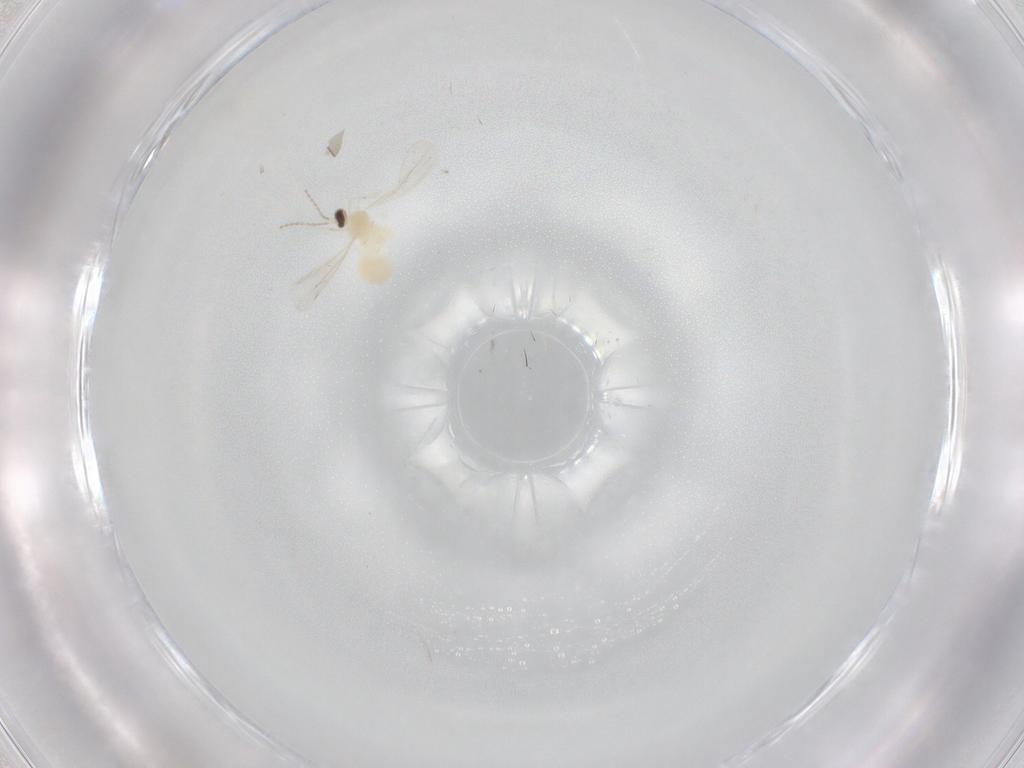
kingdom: Animalia
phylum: Arthropoda
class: Insecta
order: Diptera
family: Cecidomyiidae
